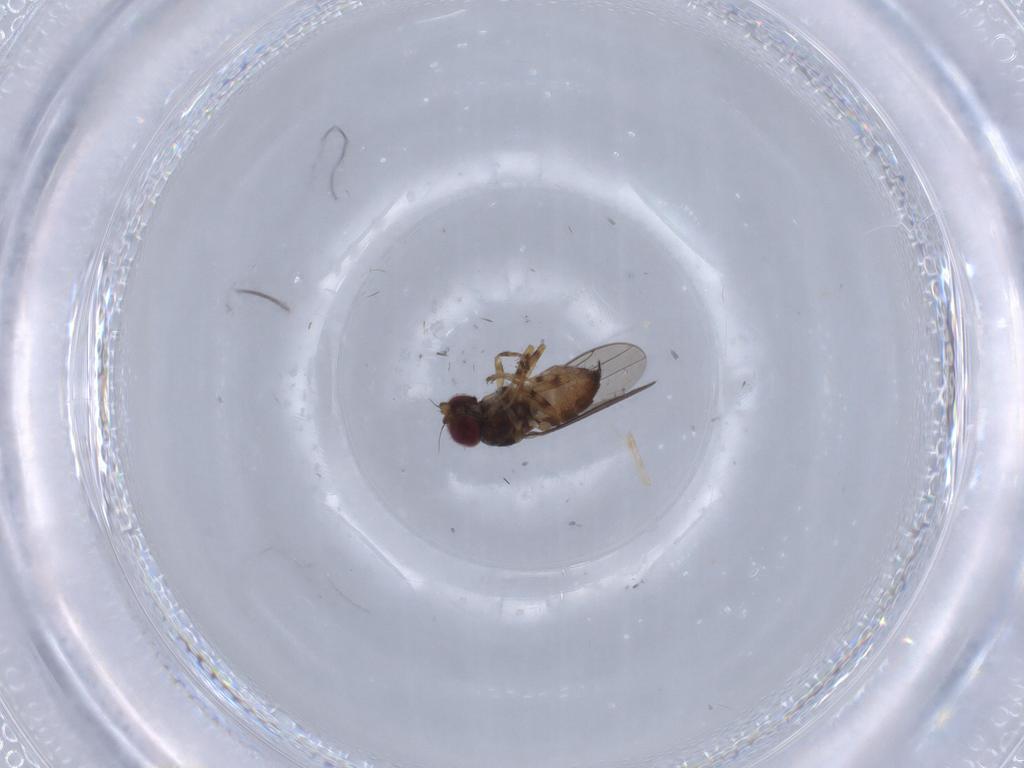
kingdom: Animalia
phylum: Arthropoda
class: Insecta
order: Diptera
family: Chloropidae
